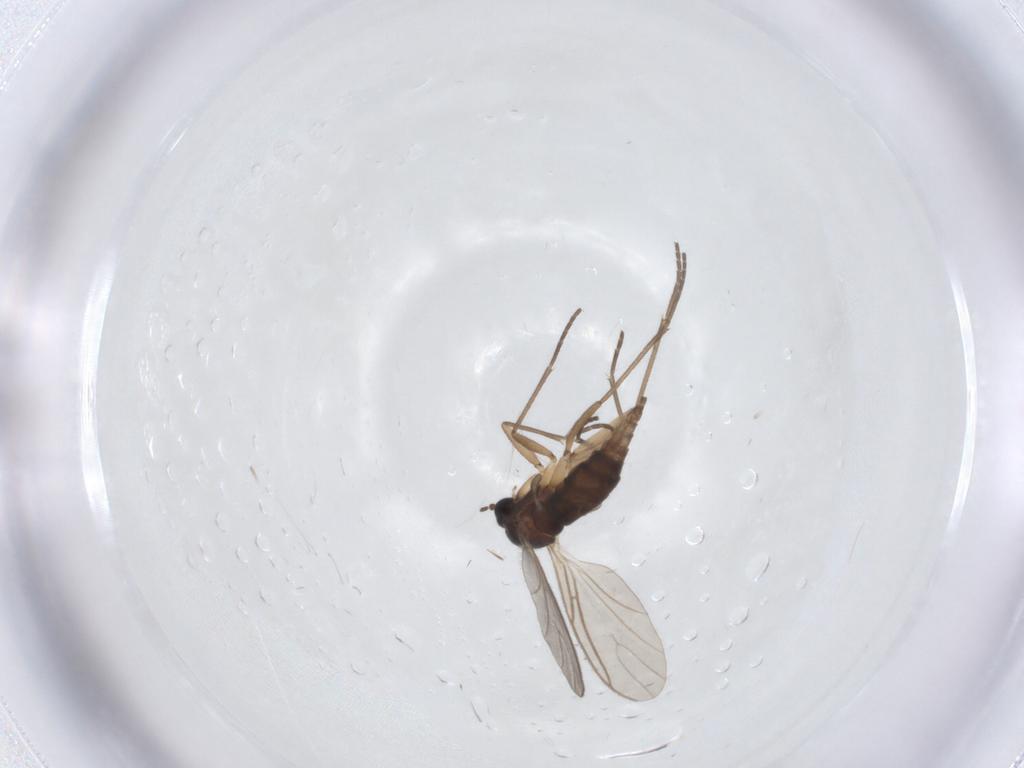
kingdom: Animalia
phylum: Arthropoda
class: Insecta
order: Diptera
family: Sciaridae
